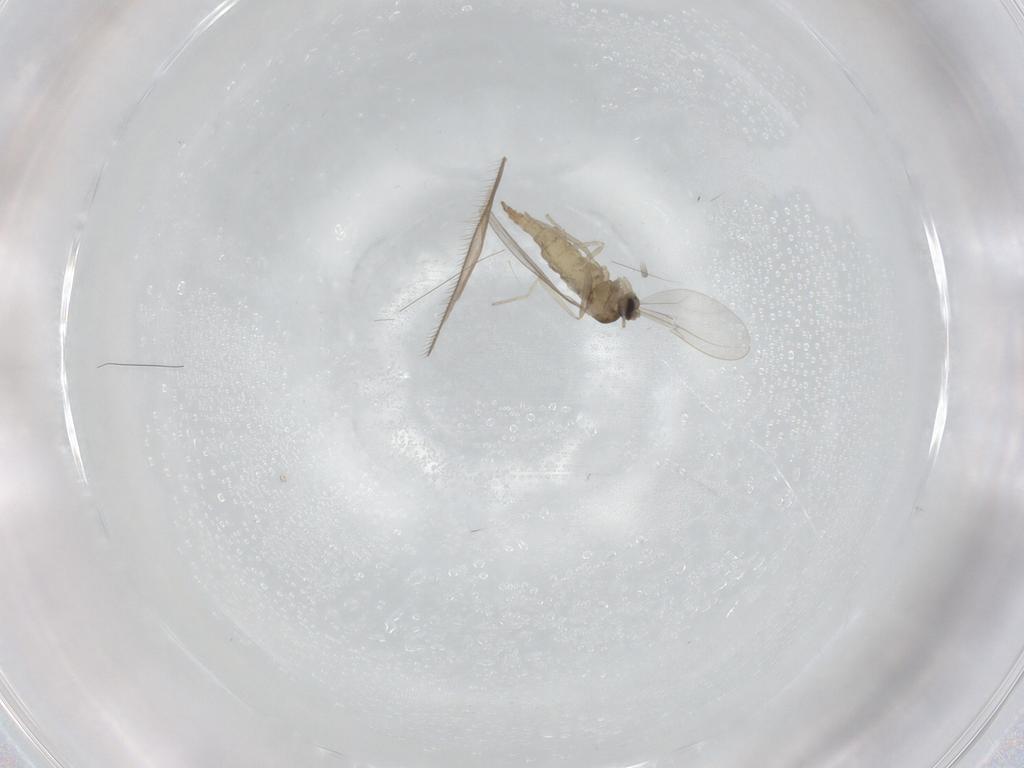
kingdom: Animalia
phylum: Arthropoda
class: Insecta
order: Diptera
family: Cecidomyiidae
